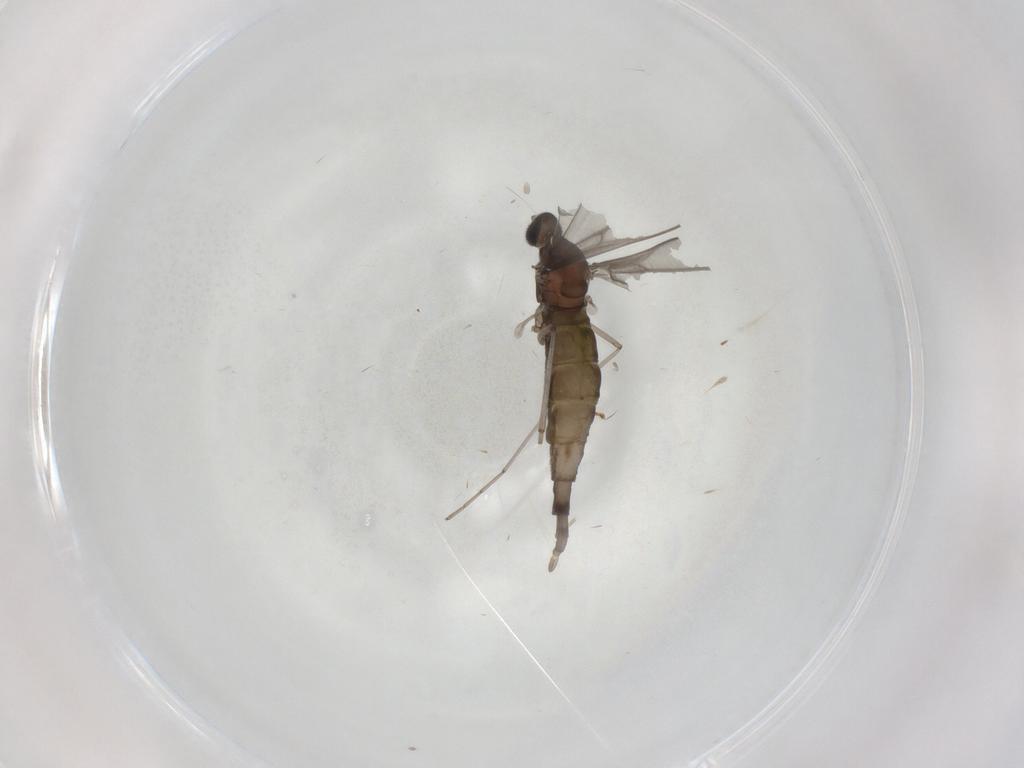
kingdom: Animalia
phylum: Arthropoda
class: Insecta
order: Diptera
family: Cecidomyiidae
